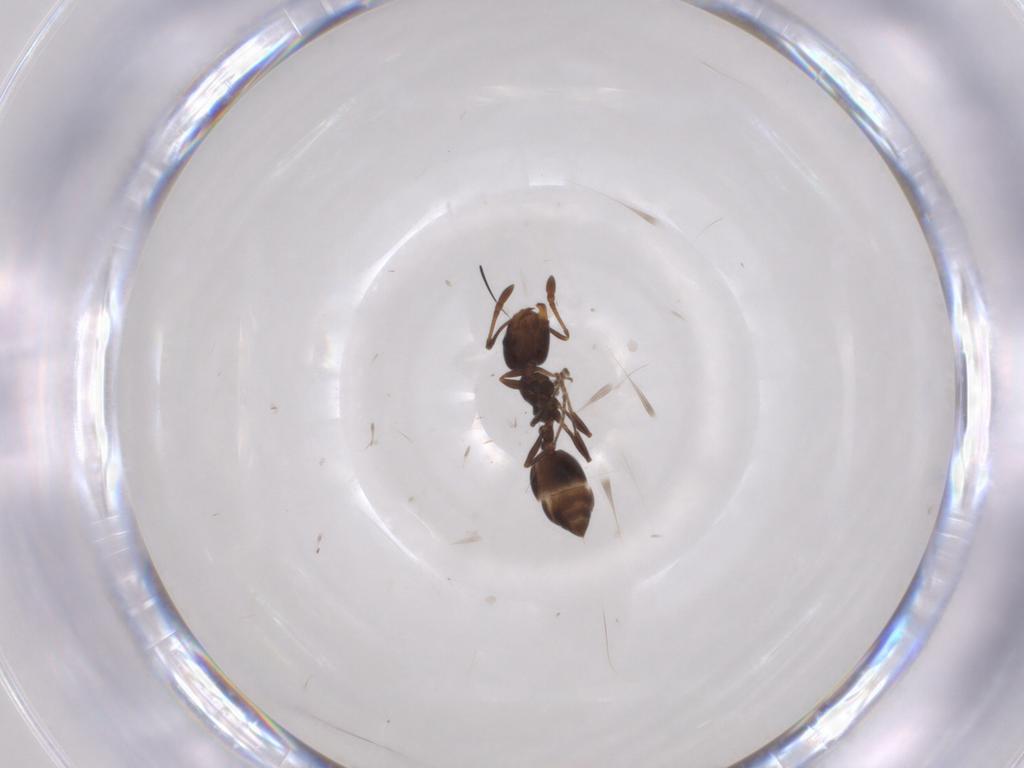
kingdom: Animalia
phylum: Arthropoda
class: Insecta
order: Hymenoptera
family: Formicidae
